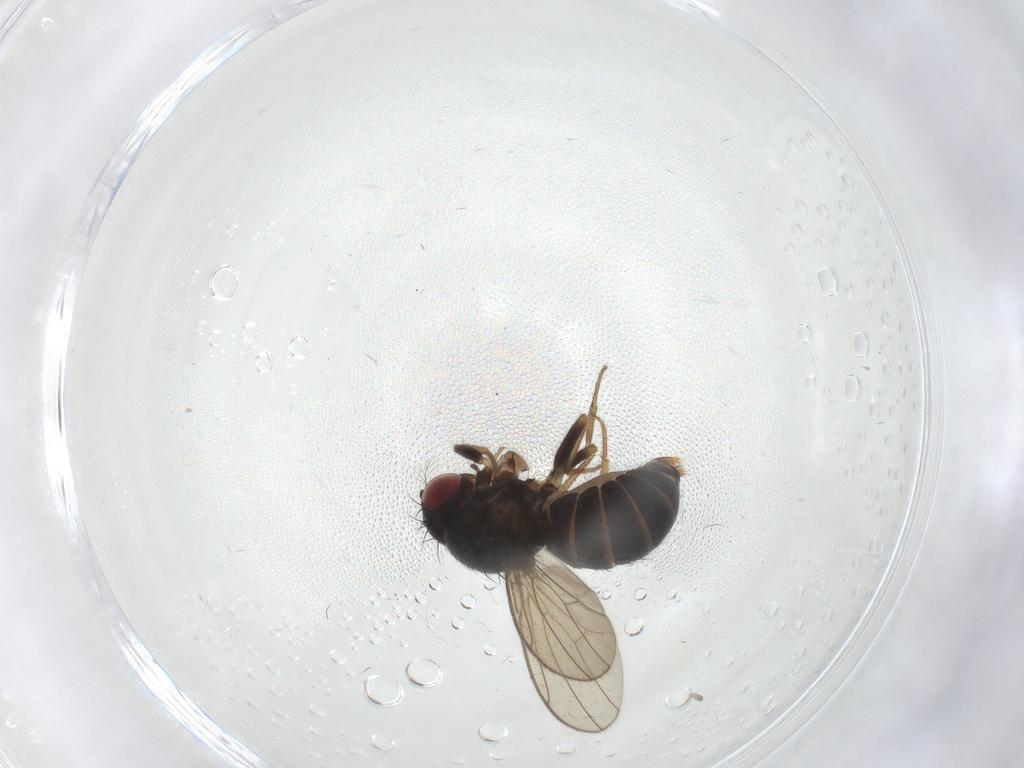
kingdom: Animalia
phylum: Arthropoda
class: Insecta
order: Diptera
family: Drosophilidae
